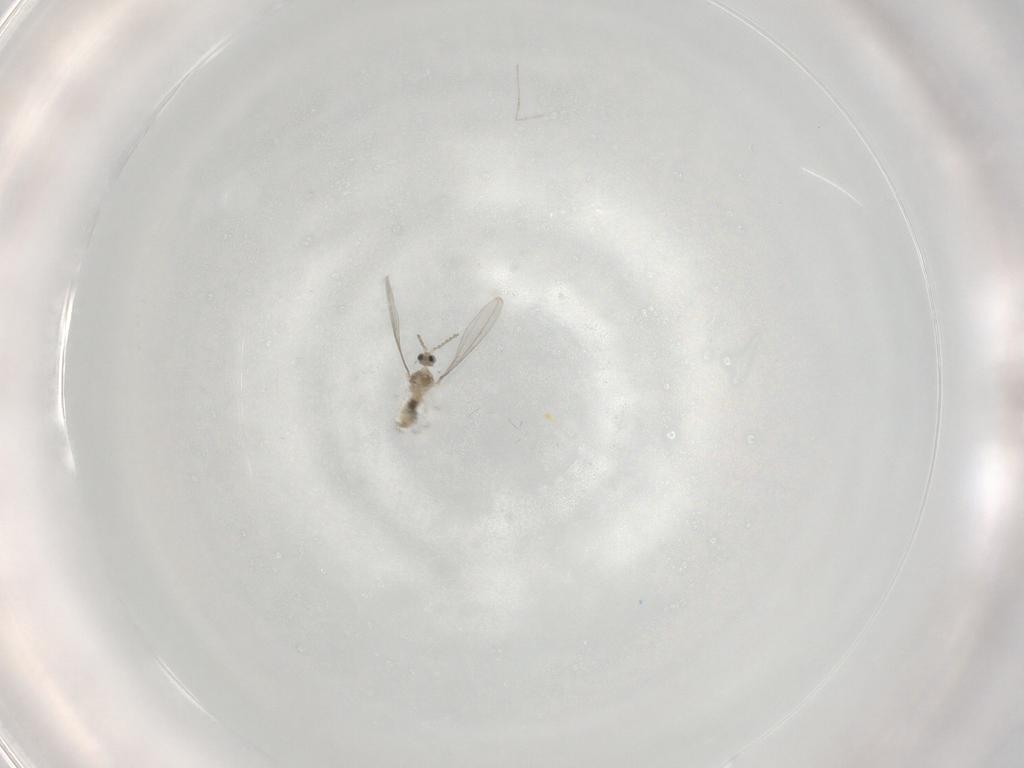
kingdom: Animalia
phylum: Arthropoda
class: Insecta
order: Diptera
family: Cecidomyiidae
